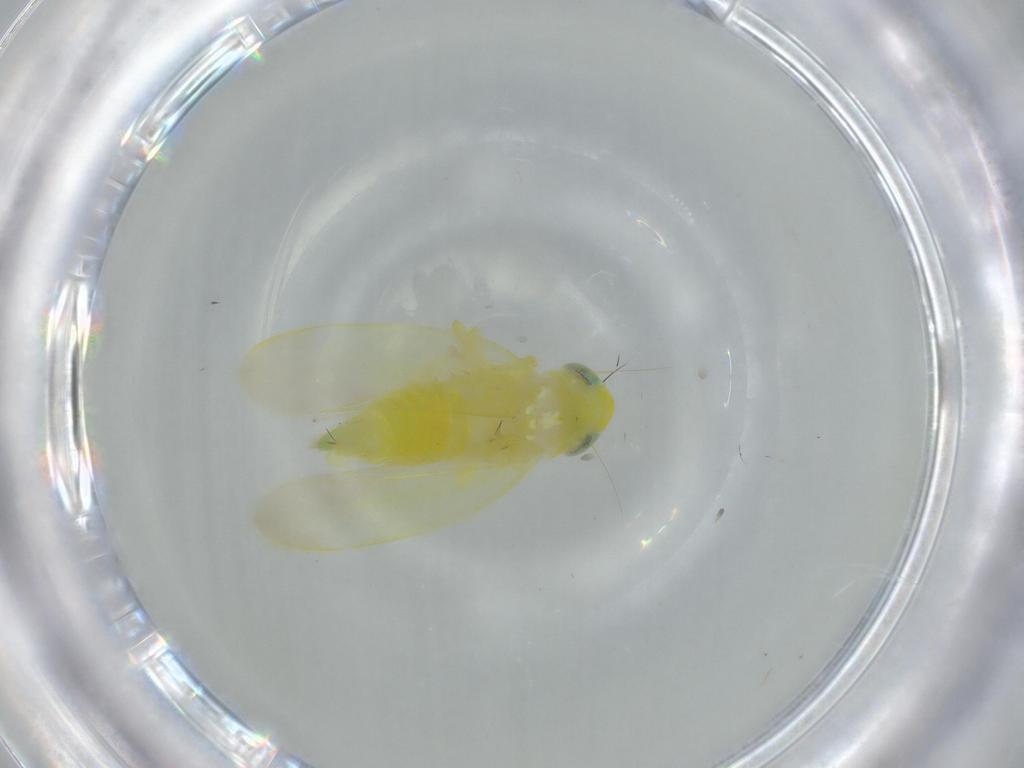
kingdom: Animalia
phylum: Arthropoda
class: Insecta
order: Hemiptera
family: Cicadellidae
